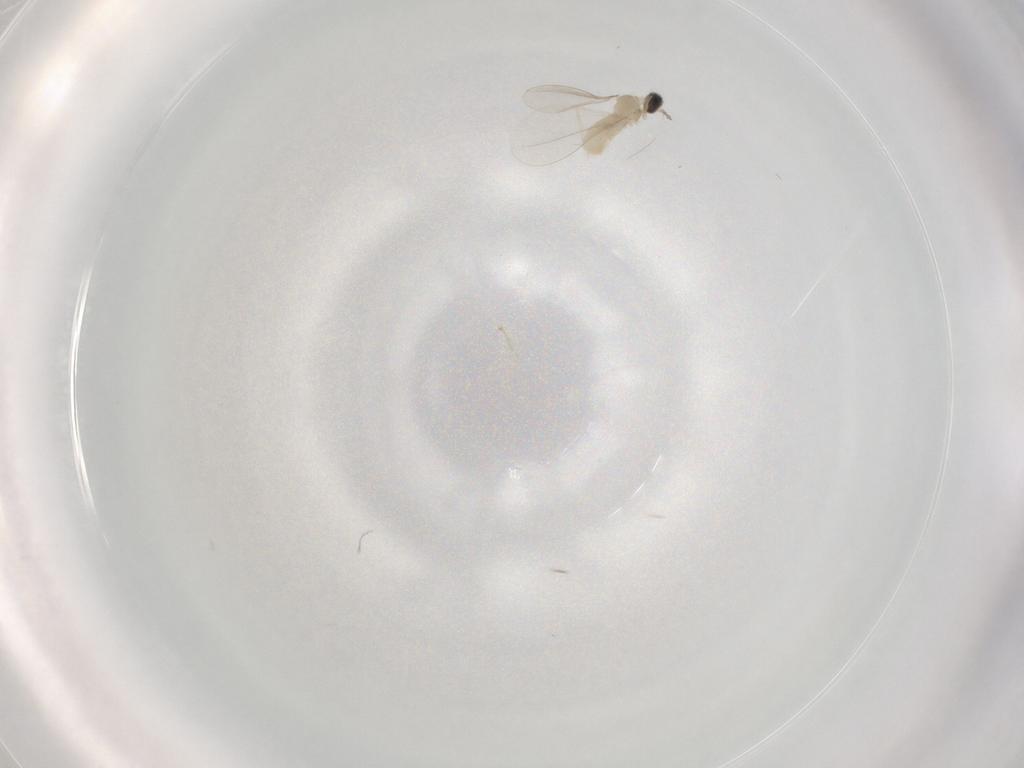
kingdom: Animalia
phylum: Arthropoda
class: Insecta
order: Diptera
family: Cecidomyiidae
